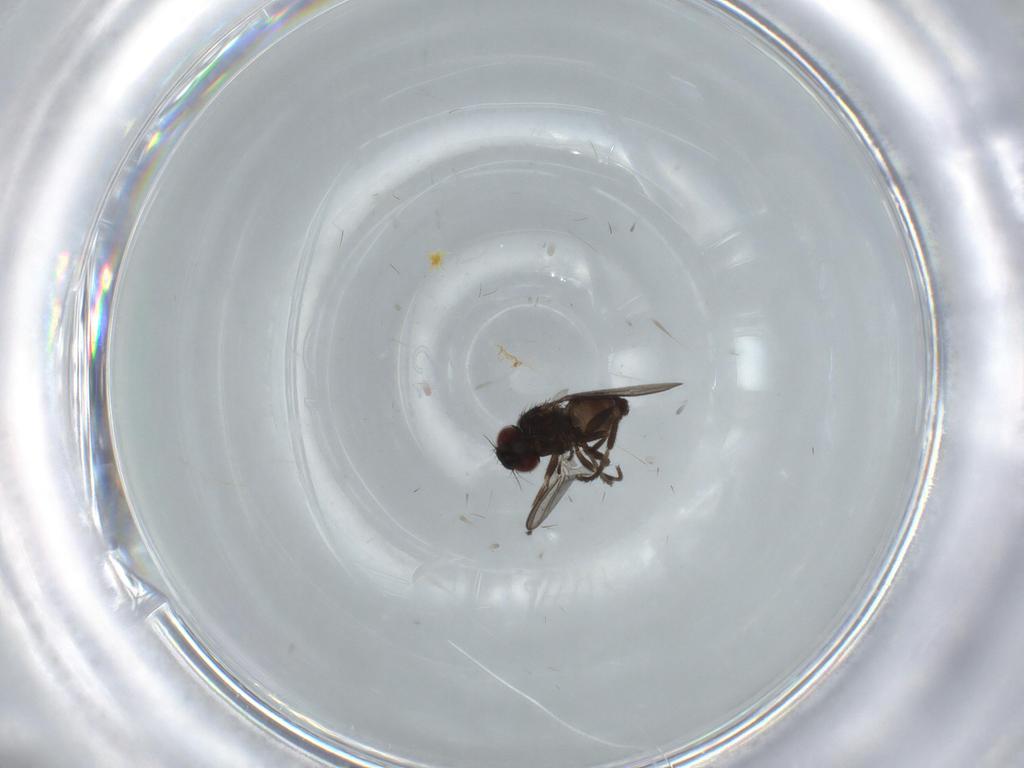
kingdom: Animalia
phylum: Arthropoda
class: Insecta
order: Diptera
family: Milichiidae
